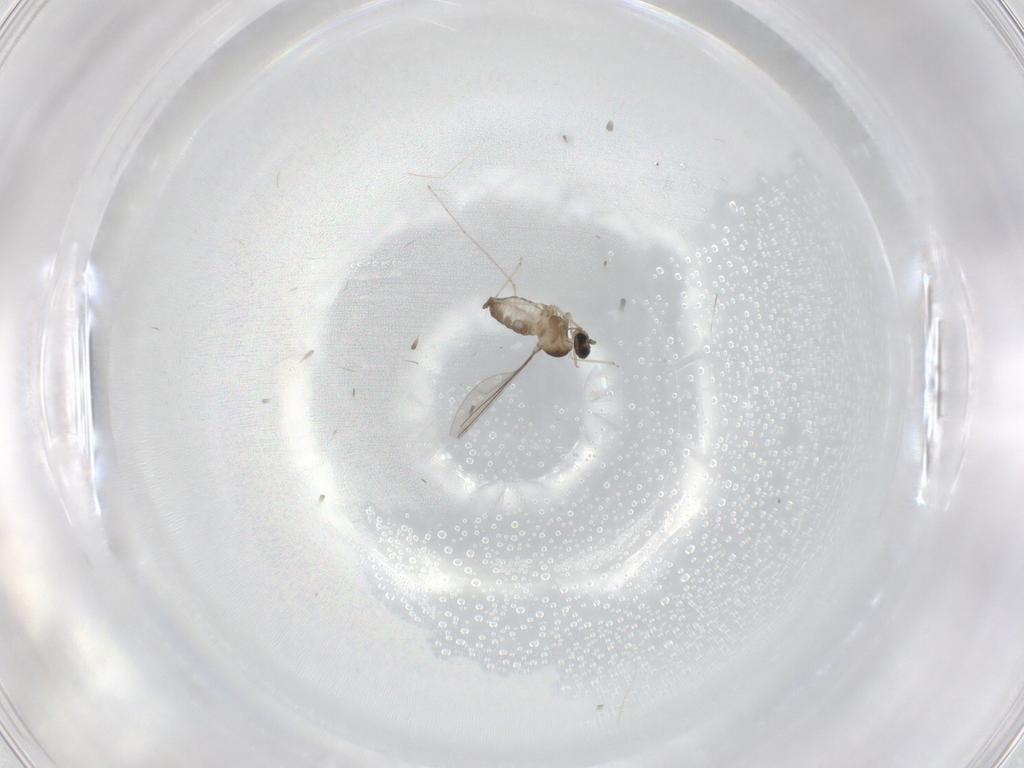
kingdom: Animalia
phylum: Arthropoda
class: Insecta
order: Diptera
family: Cecidomyiidae
